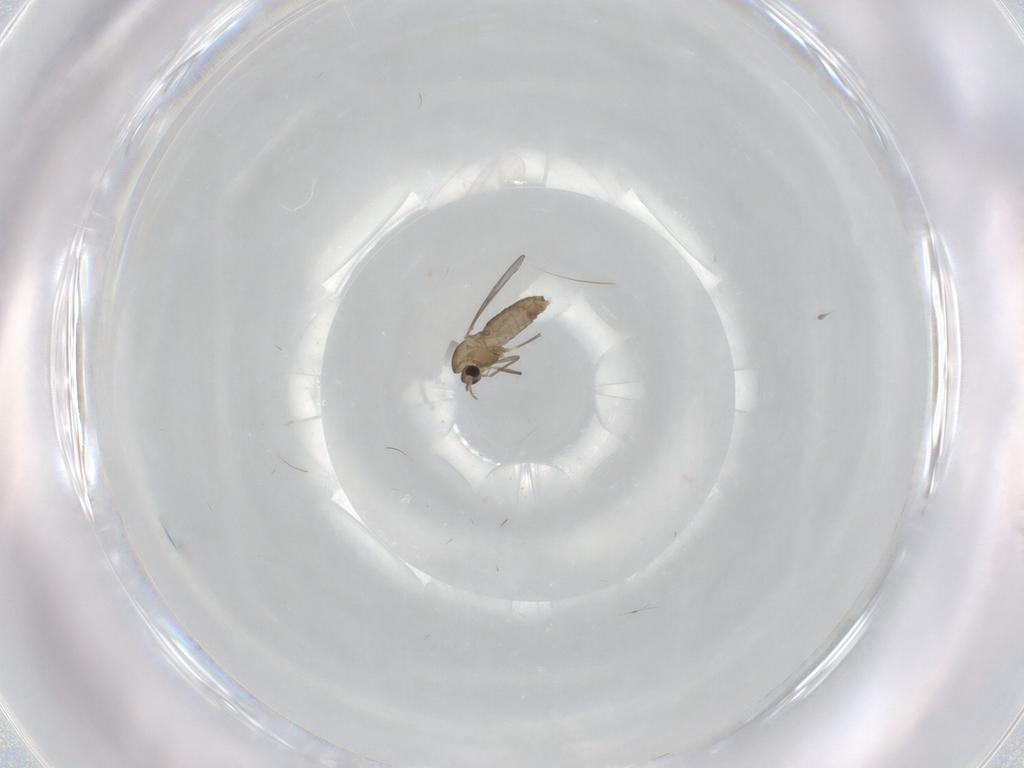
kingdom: Animalia
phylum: Arthropoda
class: Insecta
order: Diptera
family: Chironomidae
